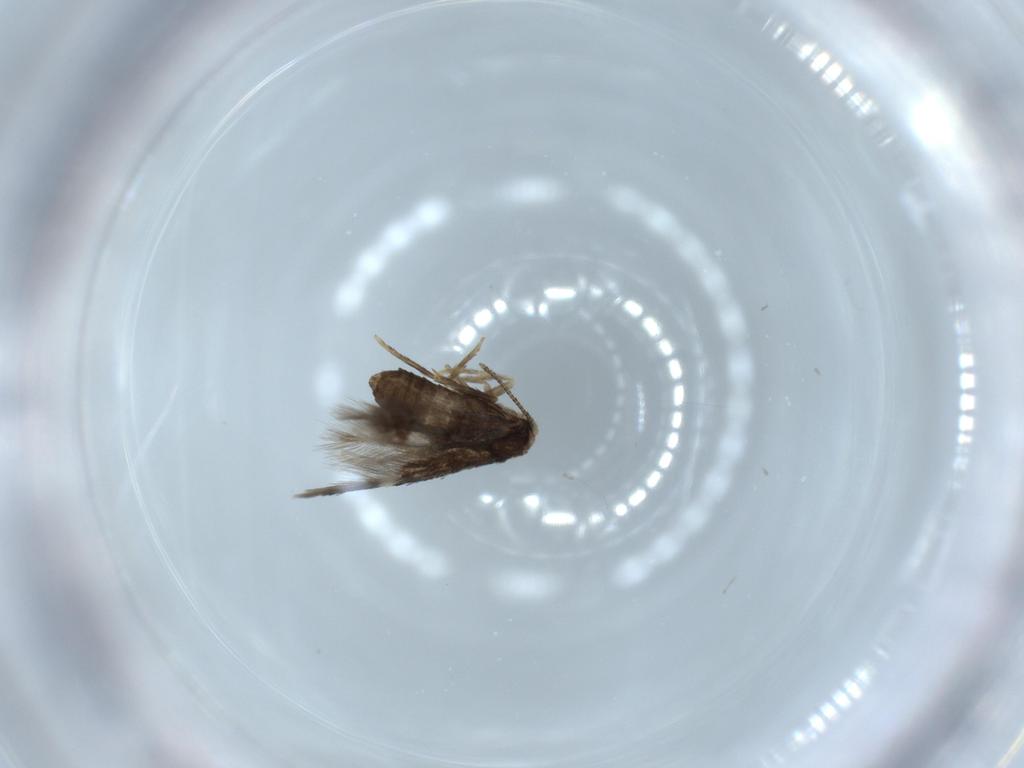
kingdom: Animalia
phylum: Arthropoda
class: Insecta
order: Lepidoptera
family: Nepticulidae
